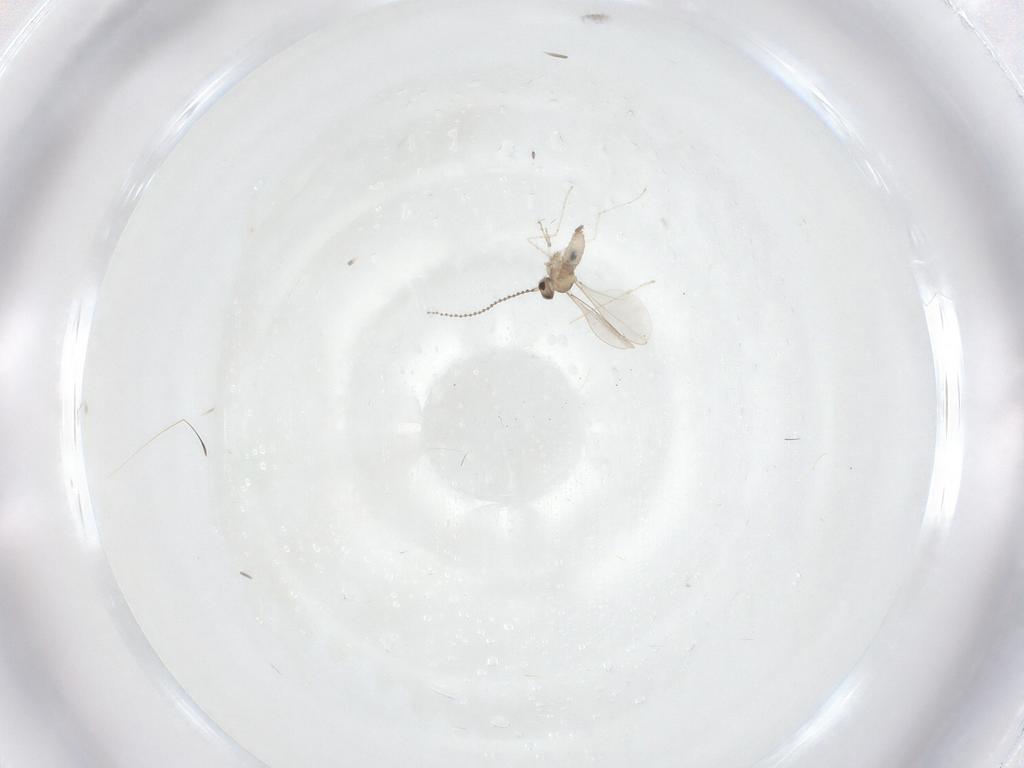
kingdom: Animalia
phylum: Arthropoda
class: Insecta
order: Diptera
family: Cecidomyiidae
